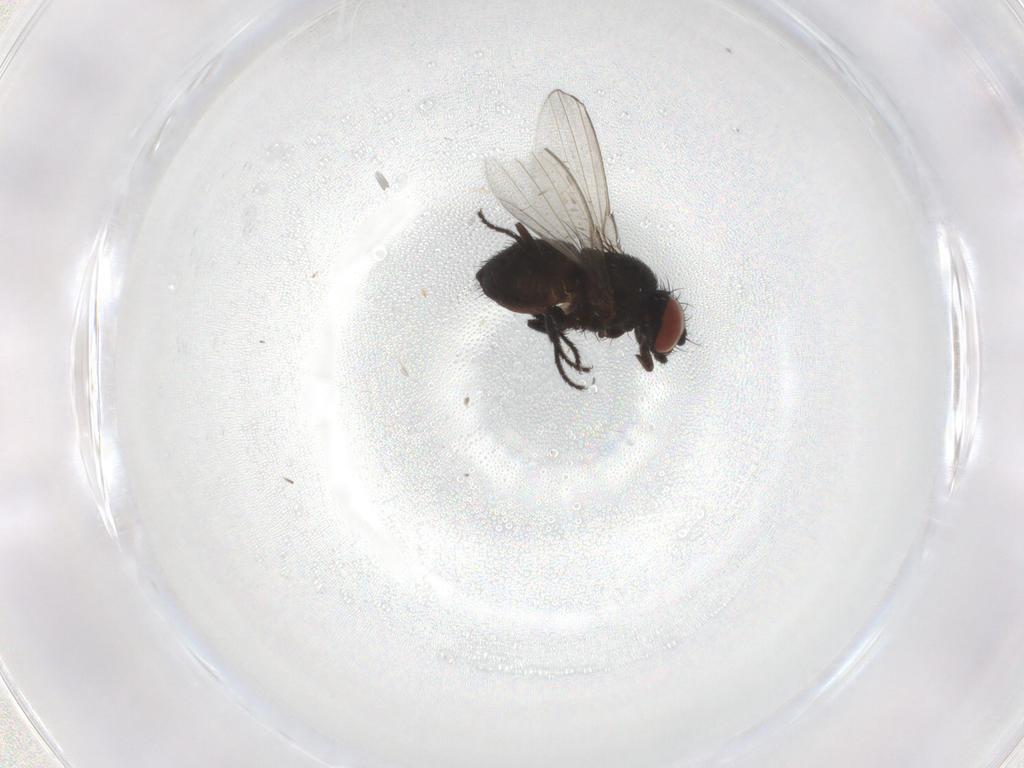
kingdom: Animalia
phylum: Arthropoda
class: Insecta
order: Diptera
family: Milichiidae
